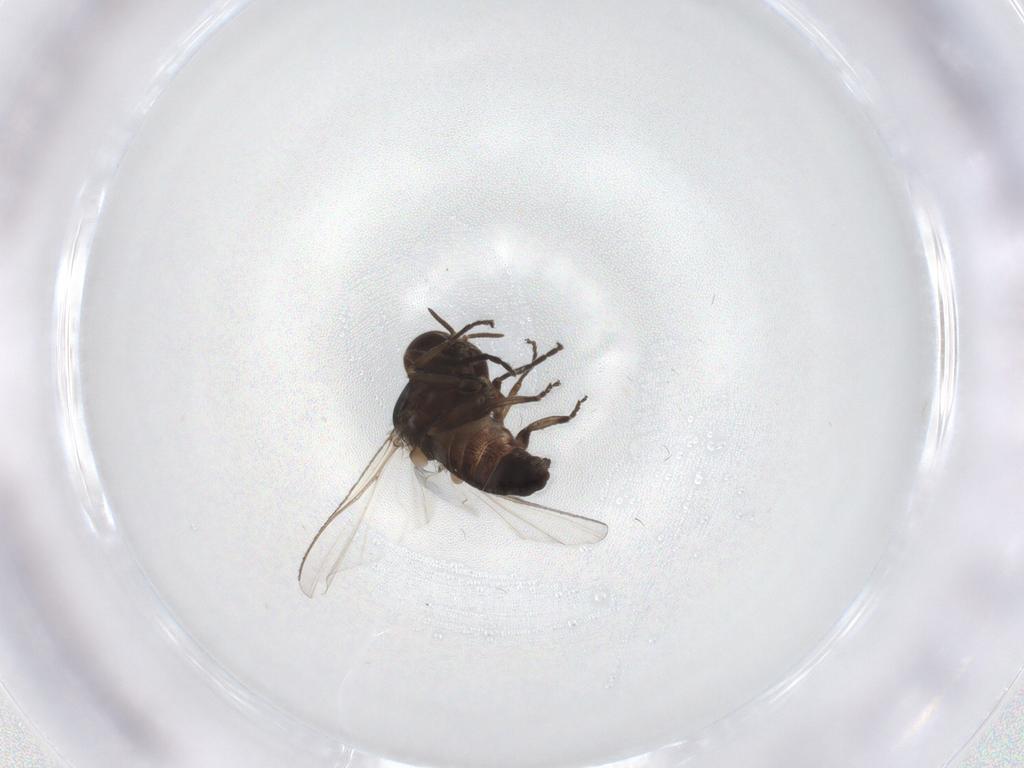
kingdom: Animalia
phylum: Arthropoda
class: Insecta
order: Diptera
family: Simuliidae
